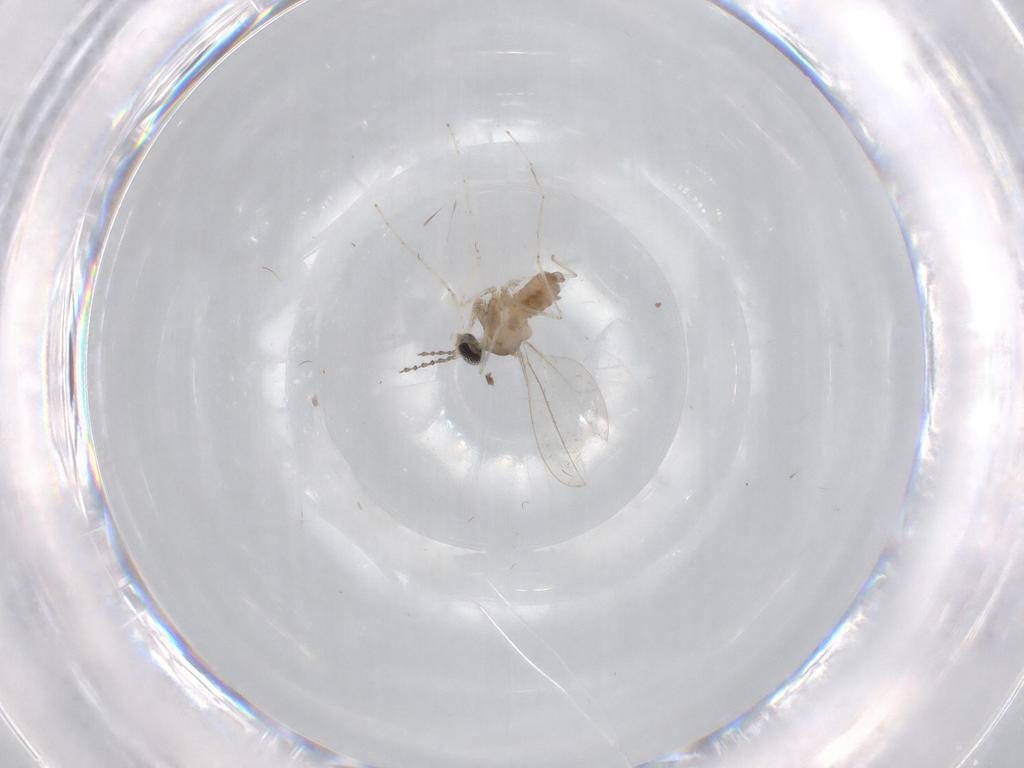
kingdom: Animalia
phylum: Arthropoda
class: Insecta
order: Diptera
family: Cecidomyiidae
